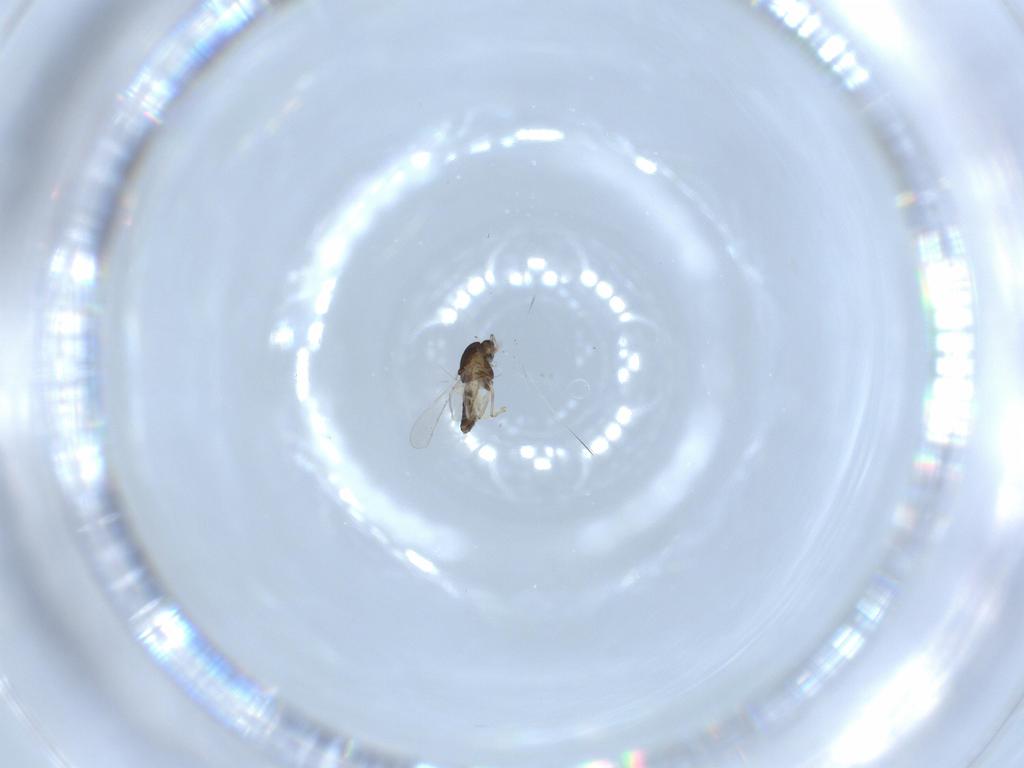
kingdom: Animalia
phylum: Arthropoda
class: Insecta
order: Diptera
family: Chironomidae
